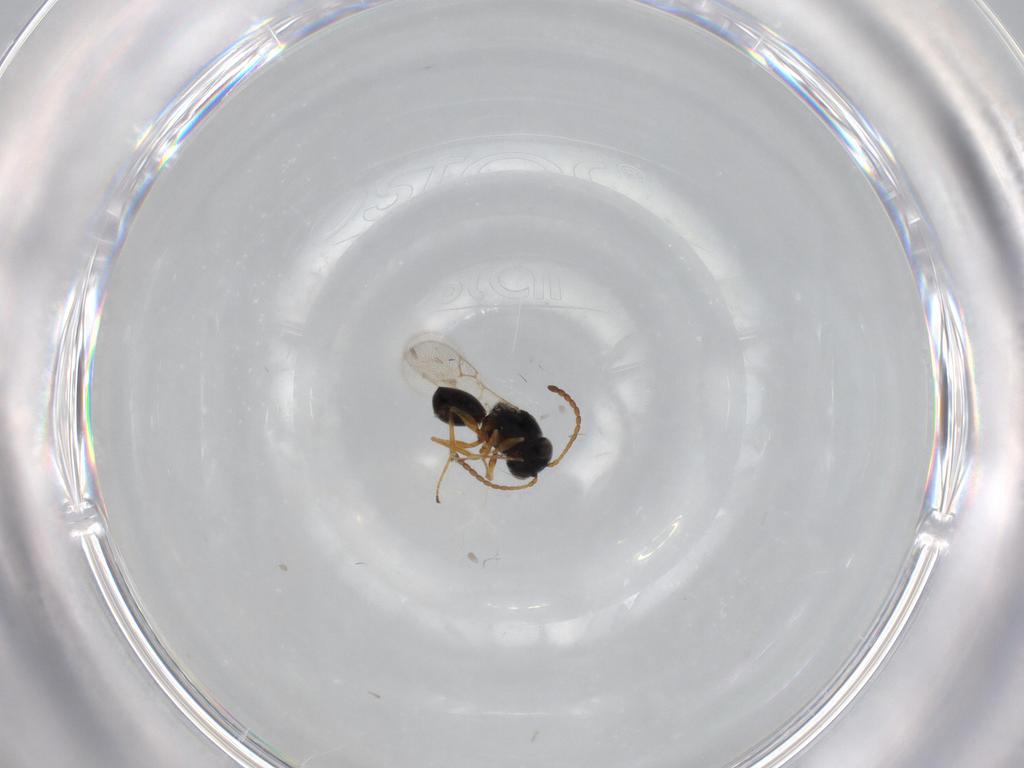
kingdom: Animalia
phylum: Arthropoda
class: Insecta
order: Hymenoptera
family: Figitidae
